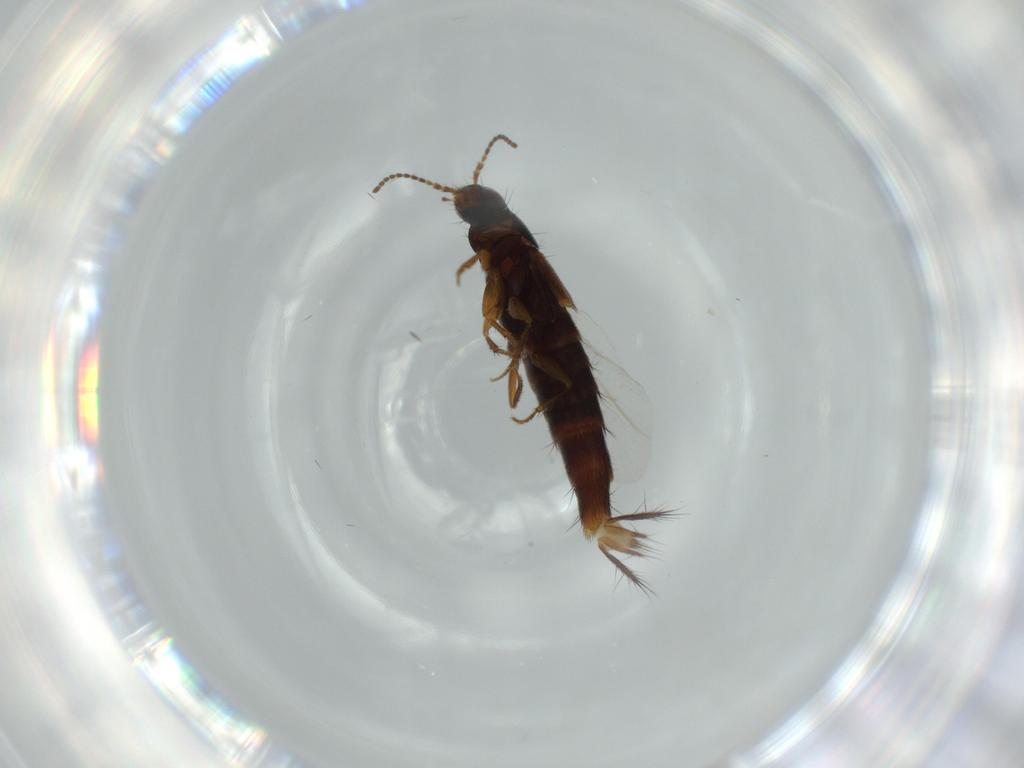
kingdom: Animalia
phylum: Arthropoda
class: Insecta
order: Coleoptera
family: Staphylinidae
